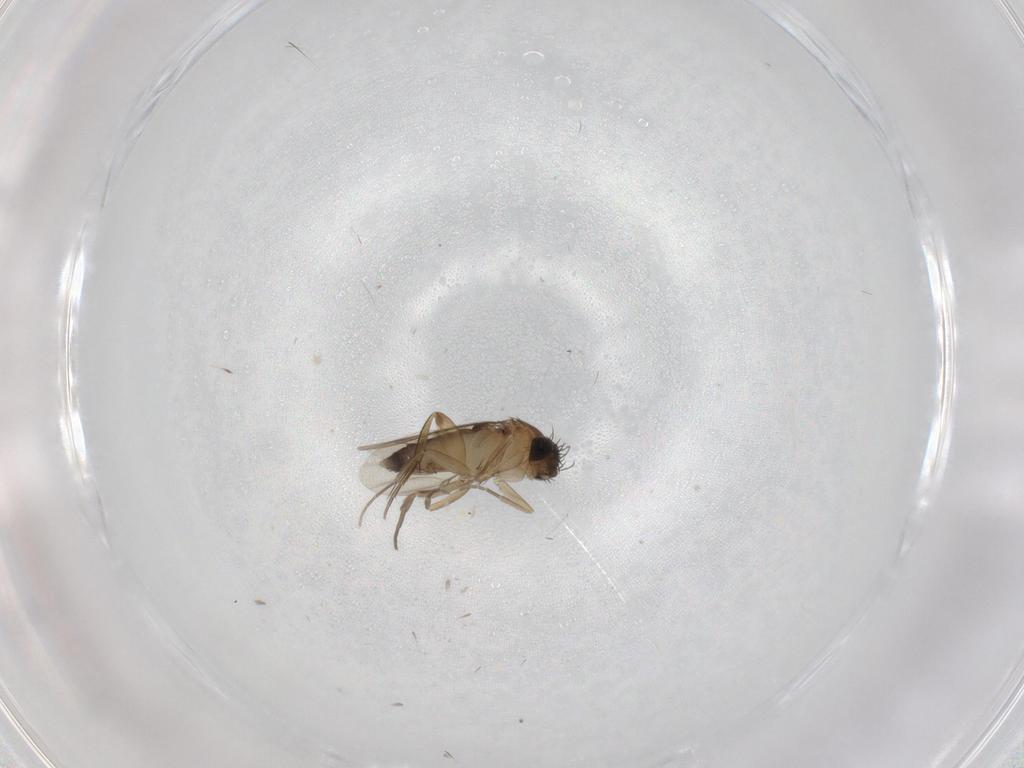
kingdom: Animalia
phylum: Arthropoda
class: Insecta
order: Diptera
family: Phoridae
